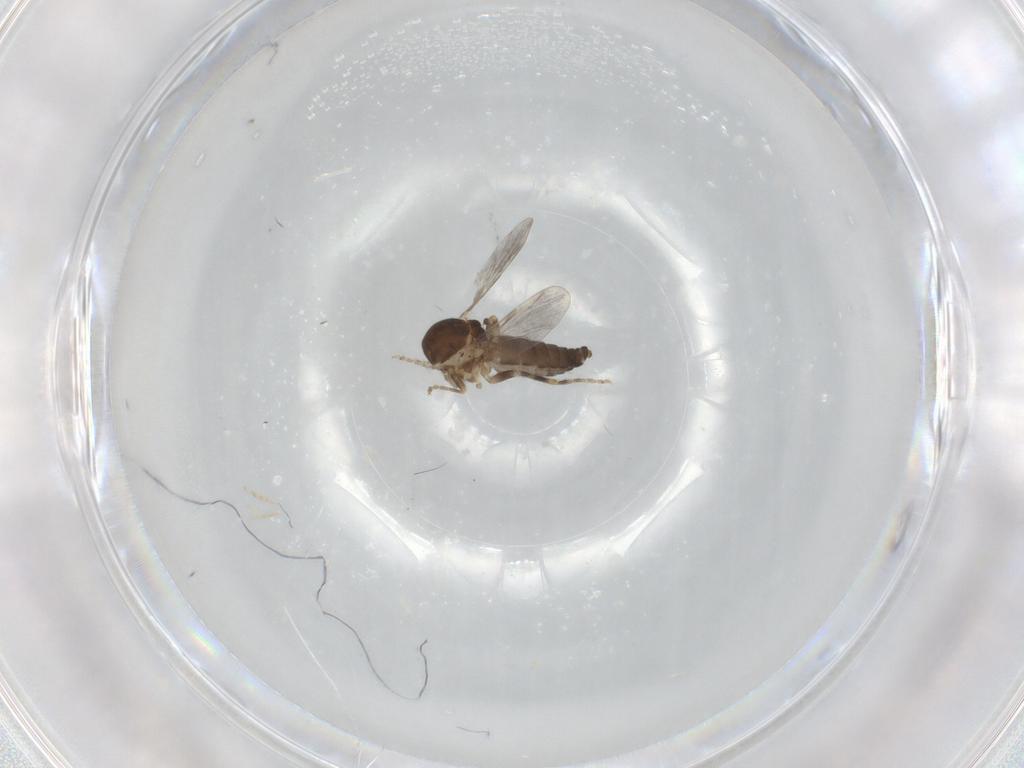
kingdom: Animalia
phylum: Arthropoda
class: Insecta
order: Diptera
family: Ceratopogonidae
